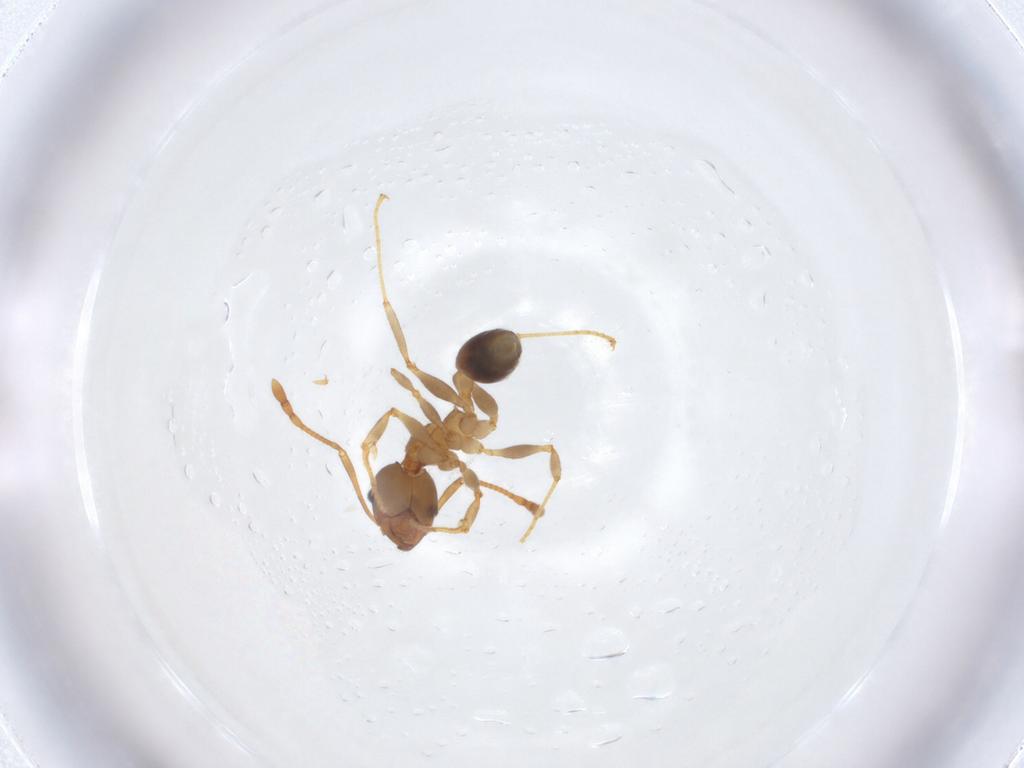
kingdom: Animalia
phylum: Arthropoda
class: Insecta
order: Hymenoptera
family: Formicidae
